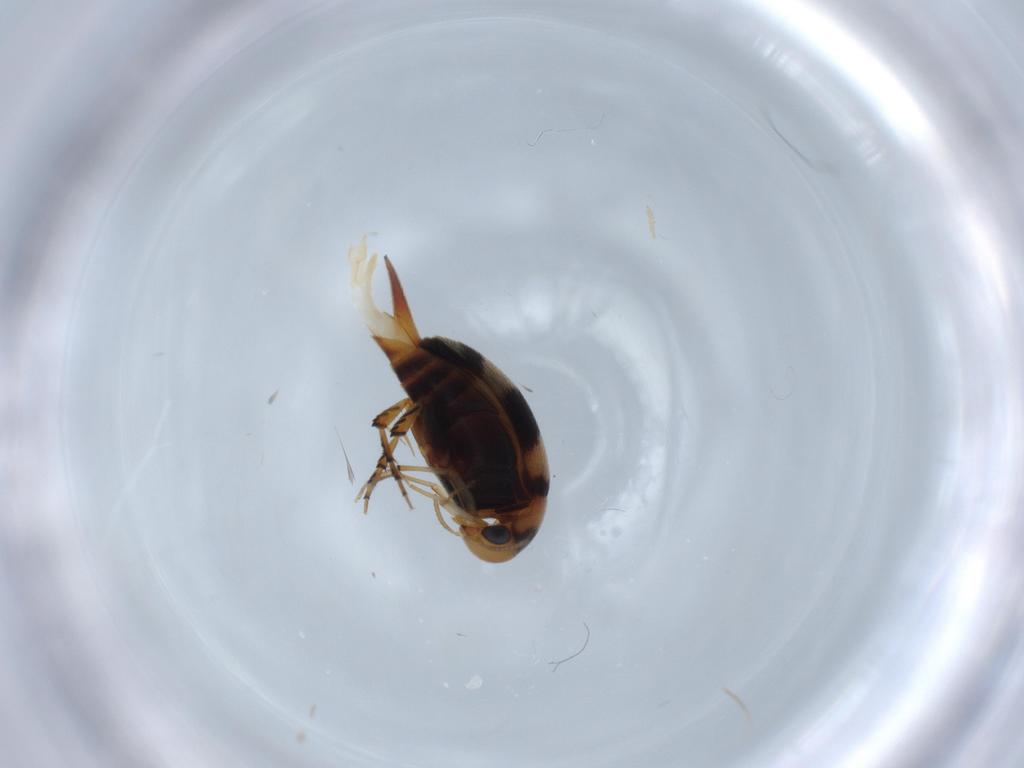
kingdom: Animalia
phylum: Arthropoda
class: Insecta
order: Coleoptera
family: Mordellidae
